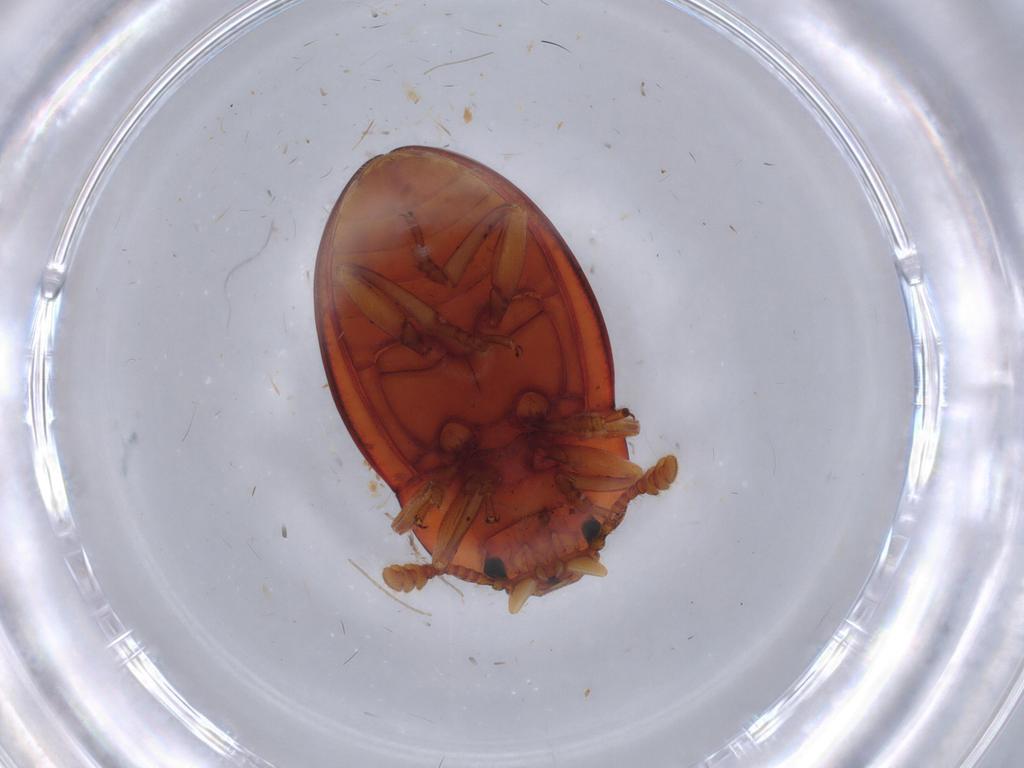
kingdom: Animalia
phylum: Arthropoda
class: Insecta
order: Coleoptera
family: Erotylidae
